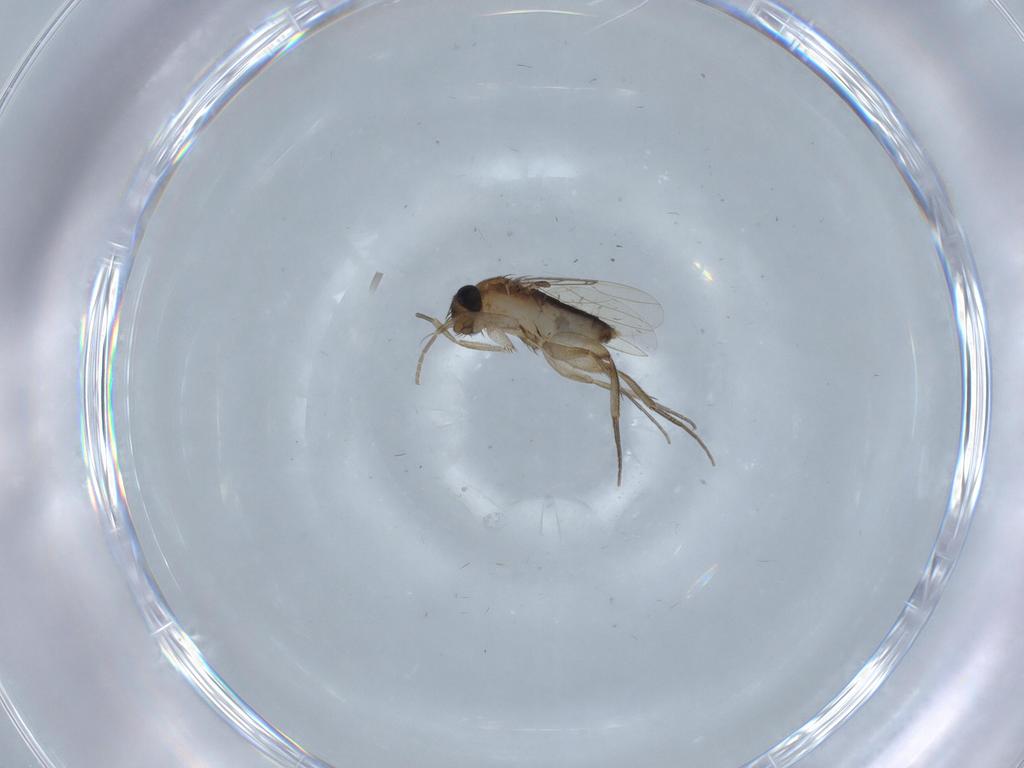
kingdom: Animalia
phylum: Arthropoda
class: Insecta
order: Diptera
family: Phoridae
